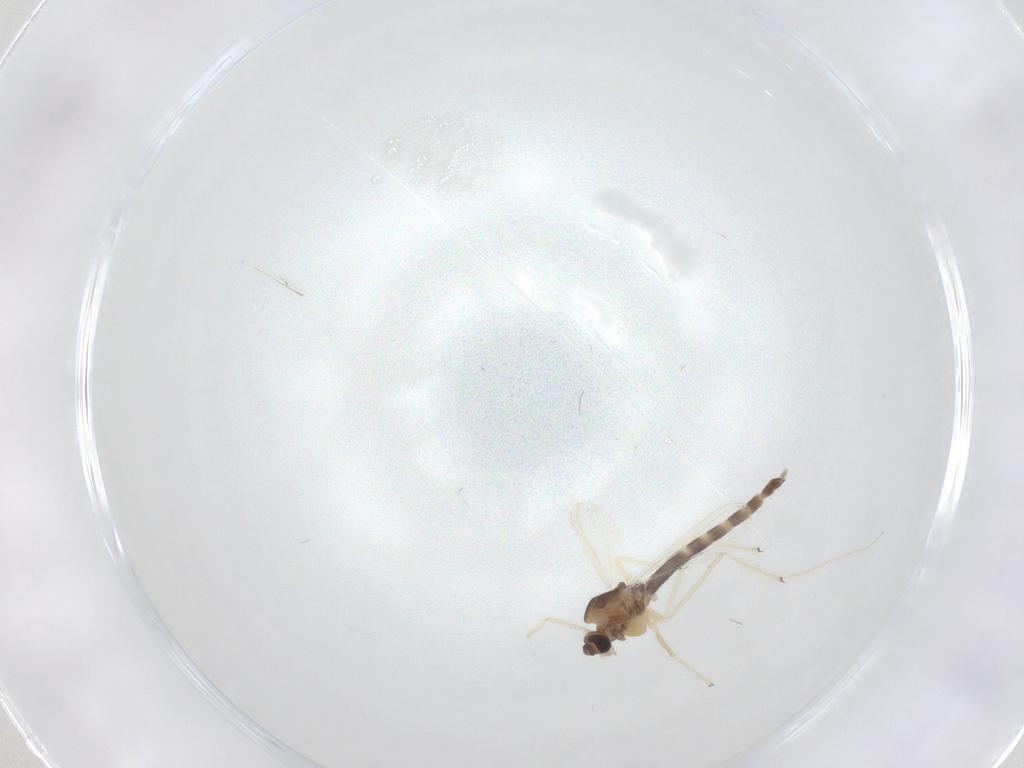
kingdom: Animalia
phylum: Arthropoda
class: Insecta
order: Diptera
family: Chironomidae
